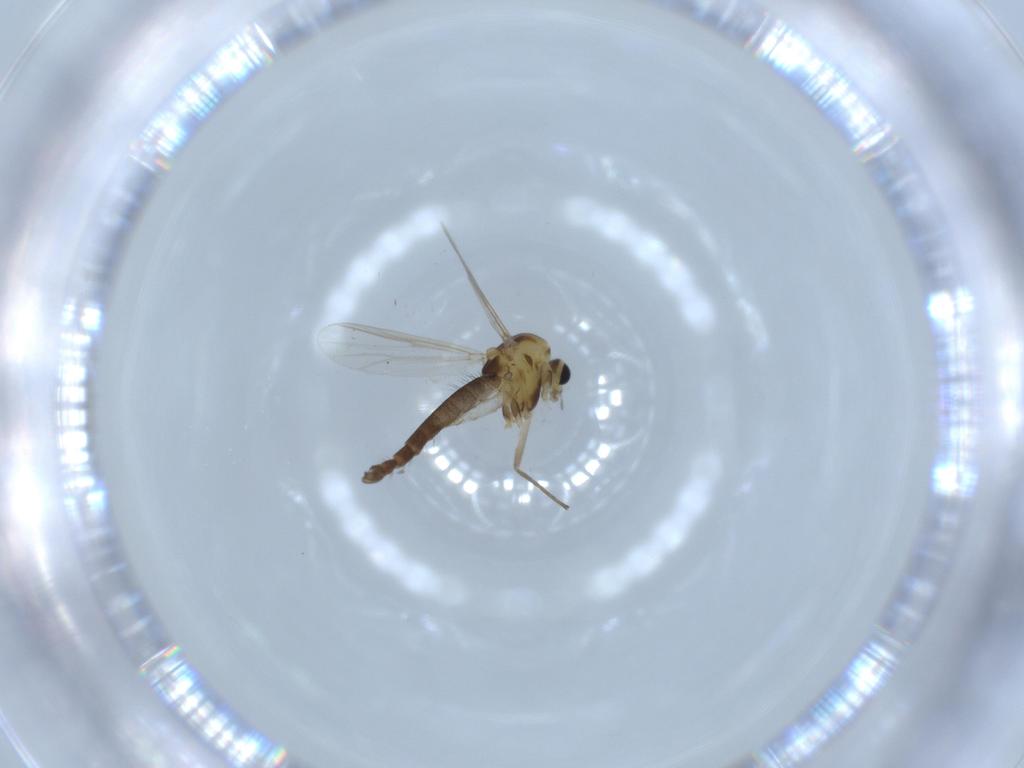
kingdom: Animalia
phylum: Arthropoda
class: Insecta
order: Diptera
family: Chironomidae
